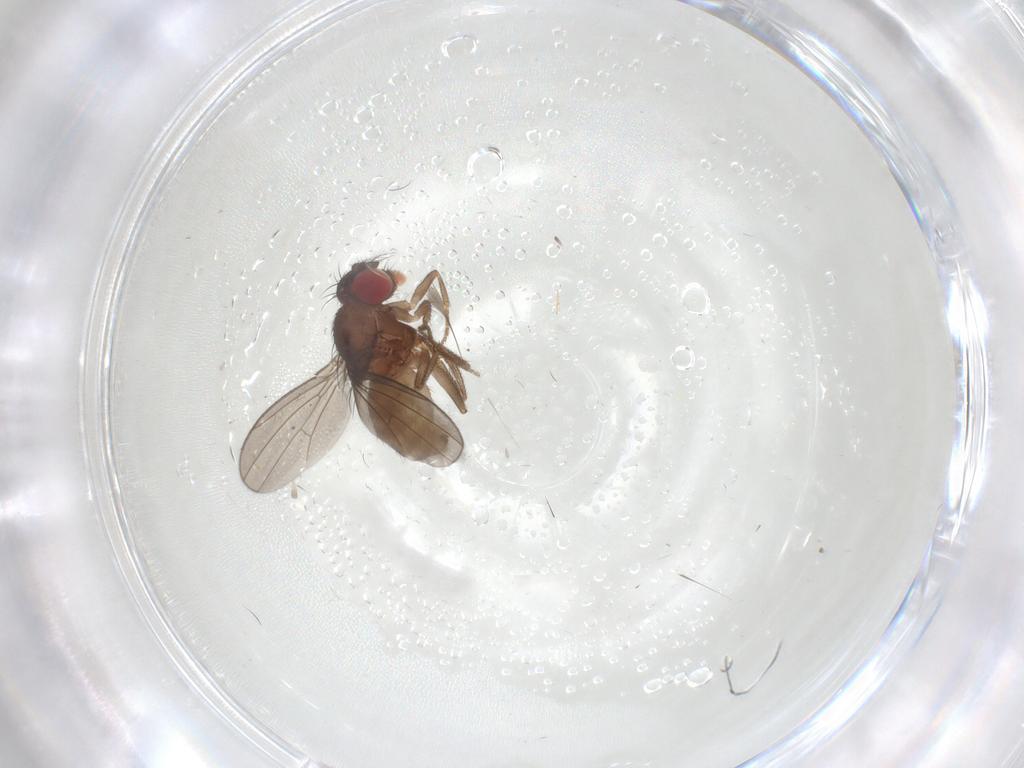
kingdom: Animalia
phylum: Arthropoda
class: Insecta
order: Diptera
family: Drosophilidae
